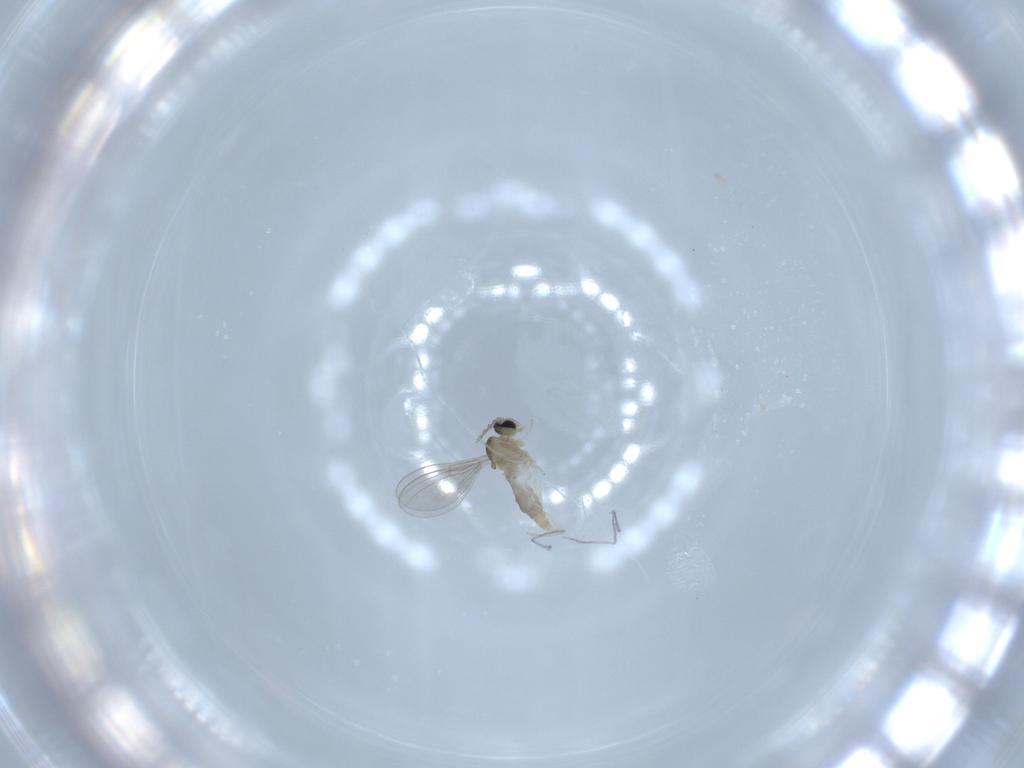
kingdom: Animalia
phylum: Arthropoda
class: Insecta
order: Diptera
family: Cecidomyiidae
